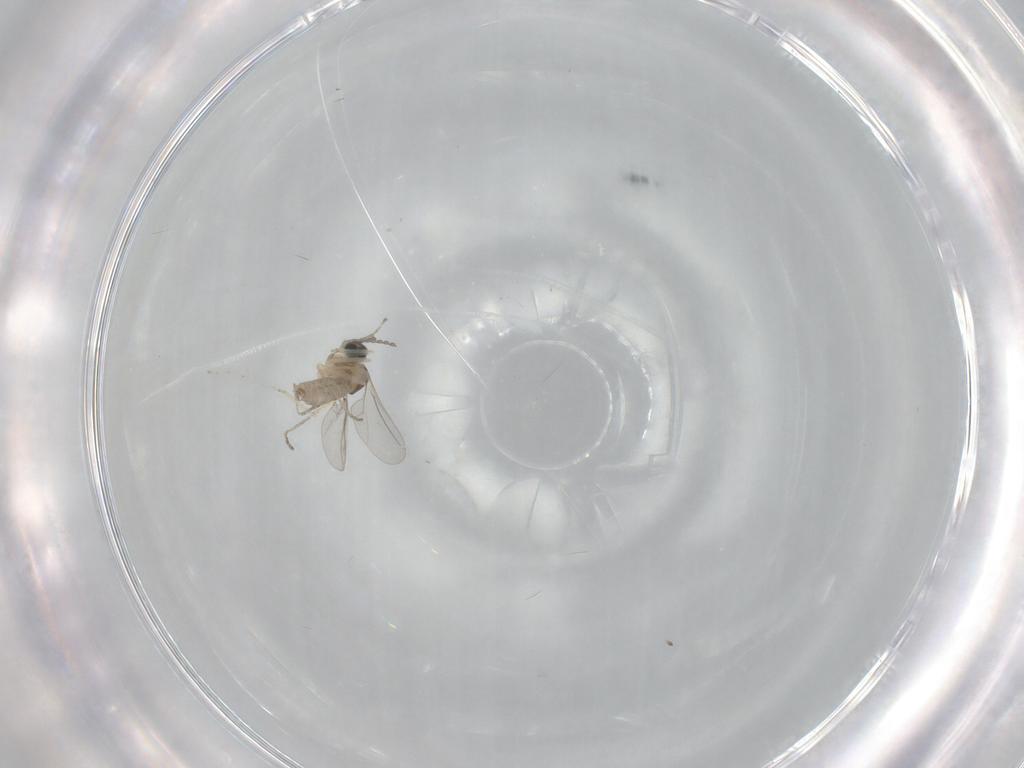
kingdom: Animalia
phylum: Arthropoda
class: Insecta
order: Diptera
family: Cecidomyiidae
